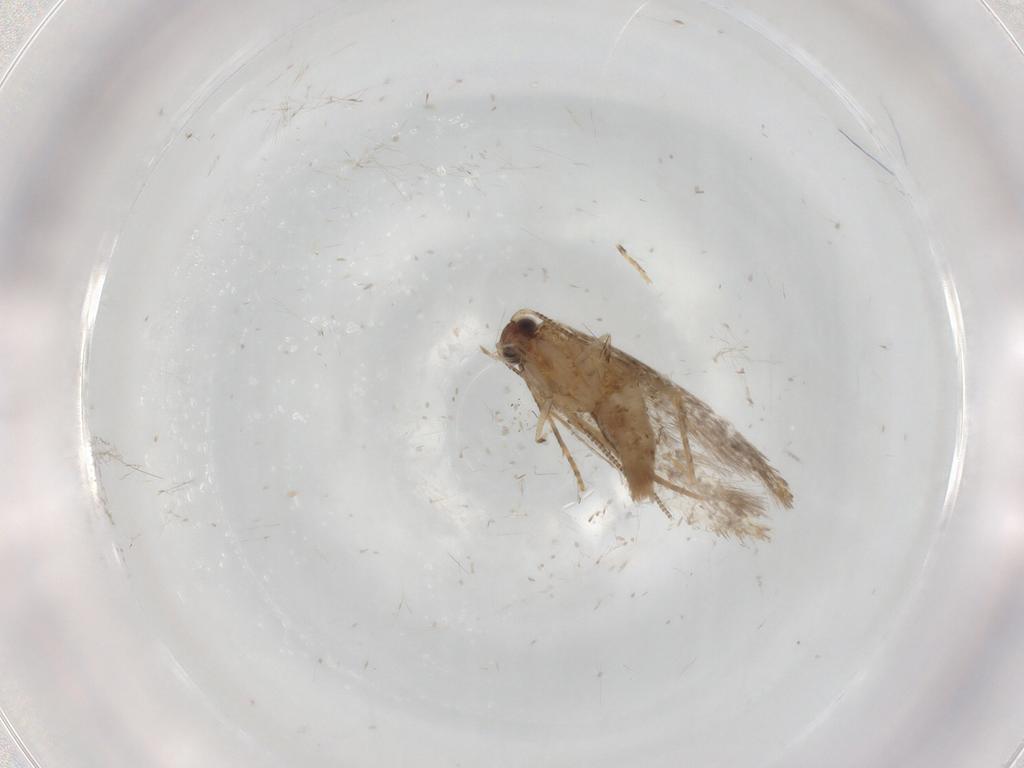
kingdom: Animalia
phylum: Arthropoda
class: Insecta
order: Lepidoptera
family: Tineidae
